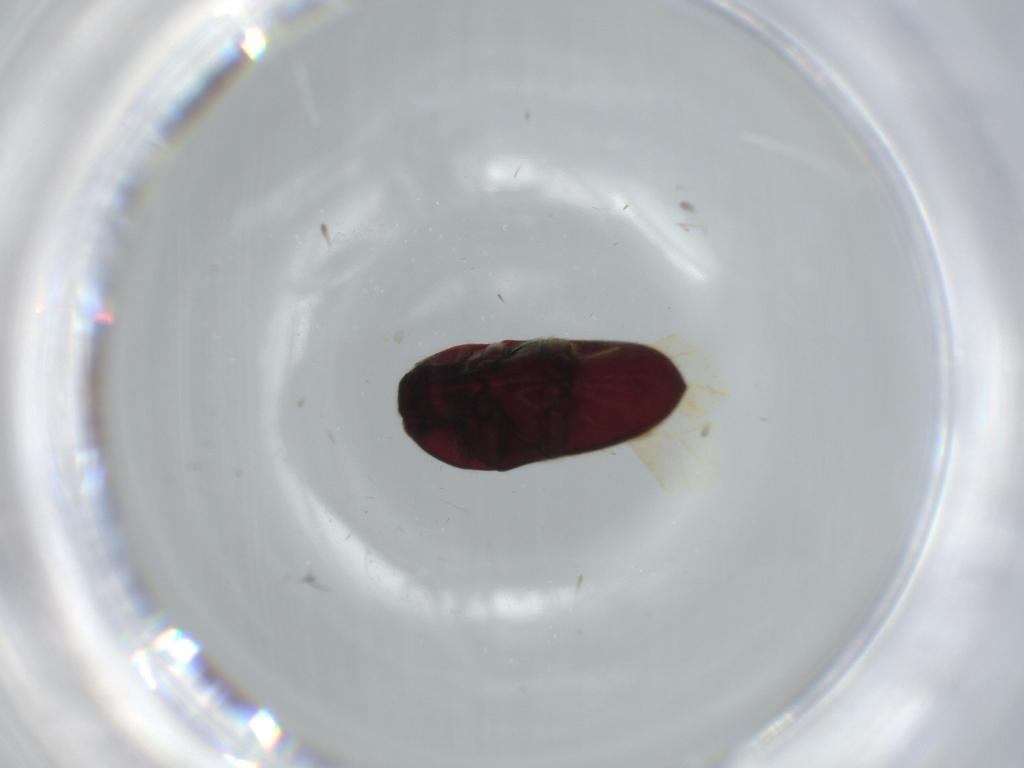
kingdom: Animalia
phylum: Arthropoda
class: Insecta
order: Coleoptera
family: Throscidae
